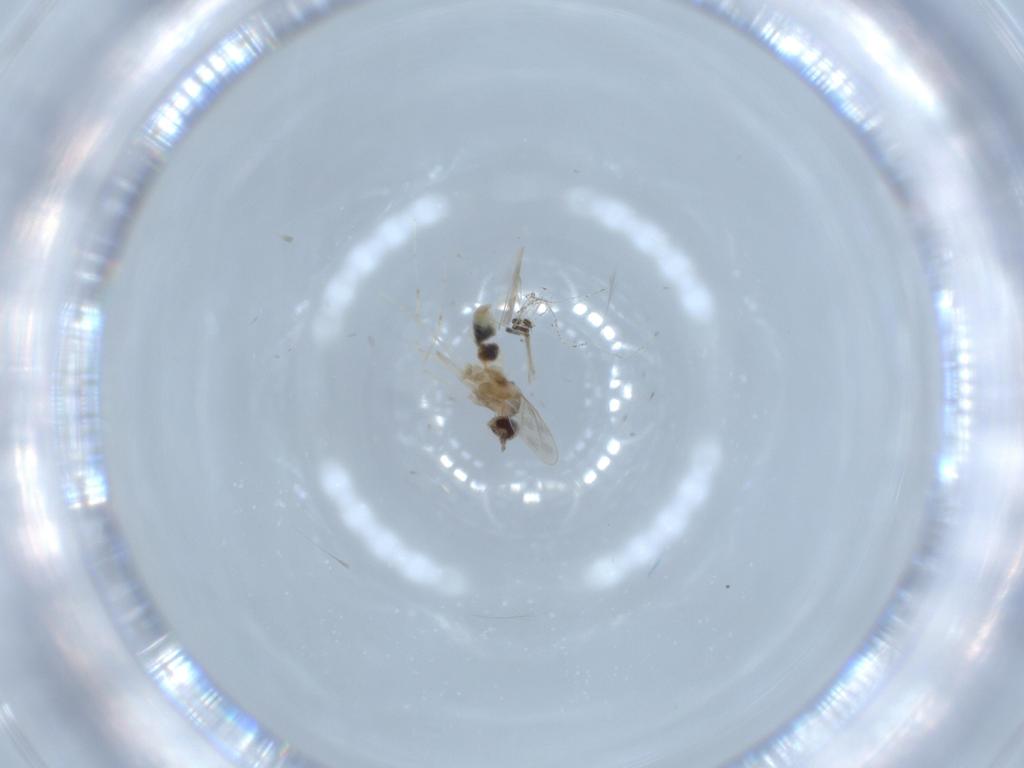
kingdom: Animalia
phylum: Arthropoda
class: Insecta
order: Diptera
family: Cecidomyiidae
